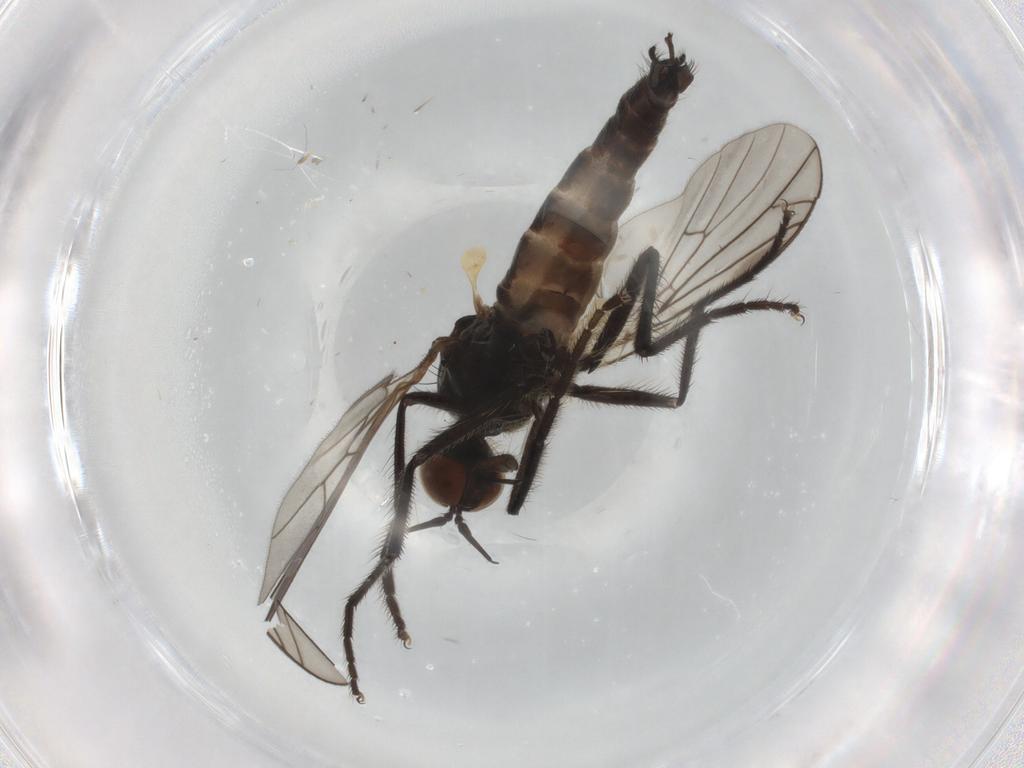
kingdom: Animalia
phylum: Arthropoda
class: Insecta
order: Diptera
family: Empididae
